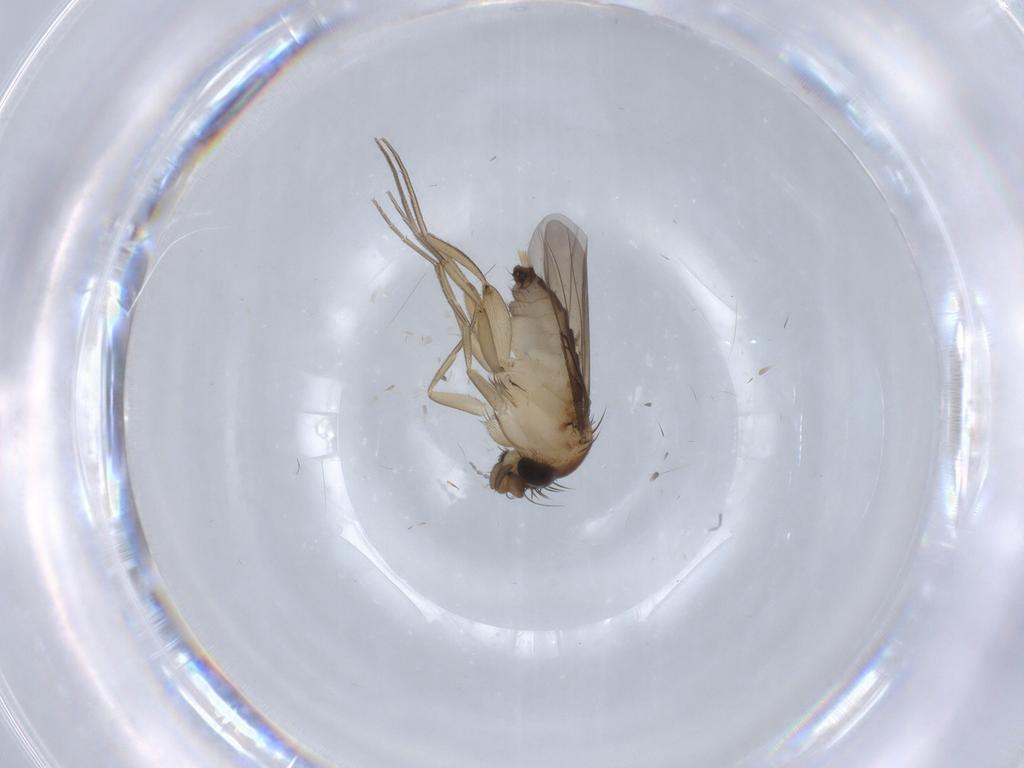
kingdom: Animalia
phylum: Arthropoda
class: Insecta
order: Diptera
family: Phoridae
